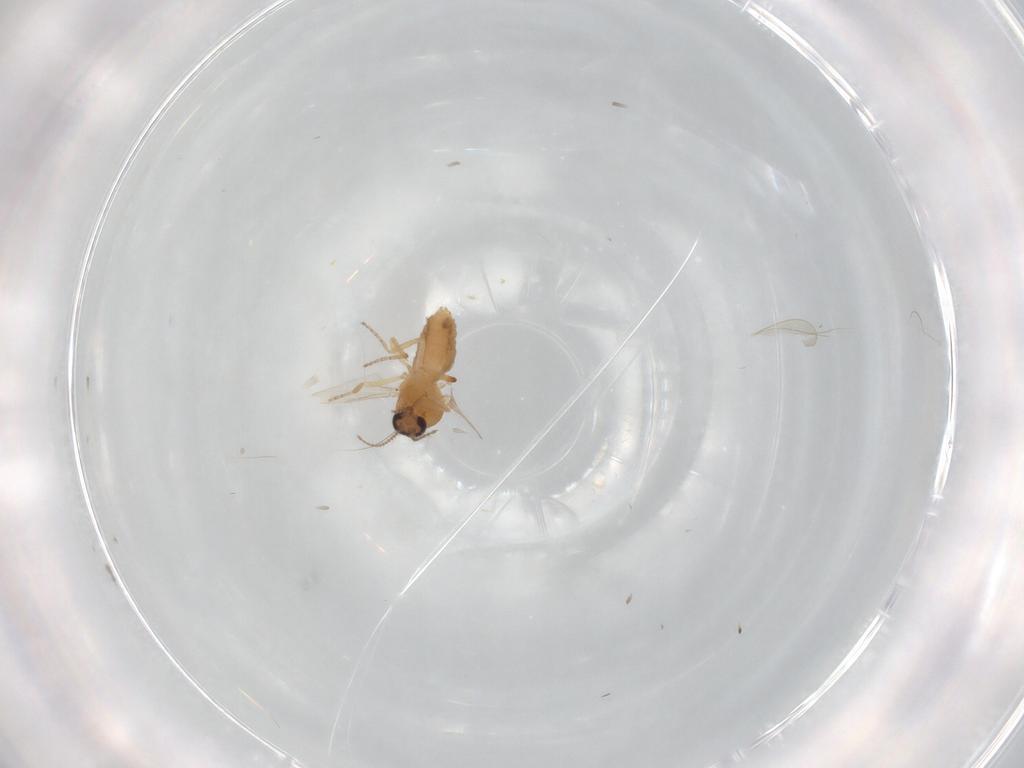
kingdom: Animalia
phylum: Arthropoda
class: Insecta
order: Diptera
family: Ceratopogonidae
